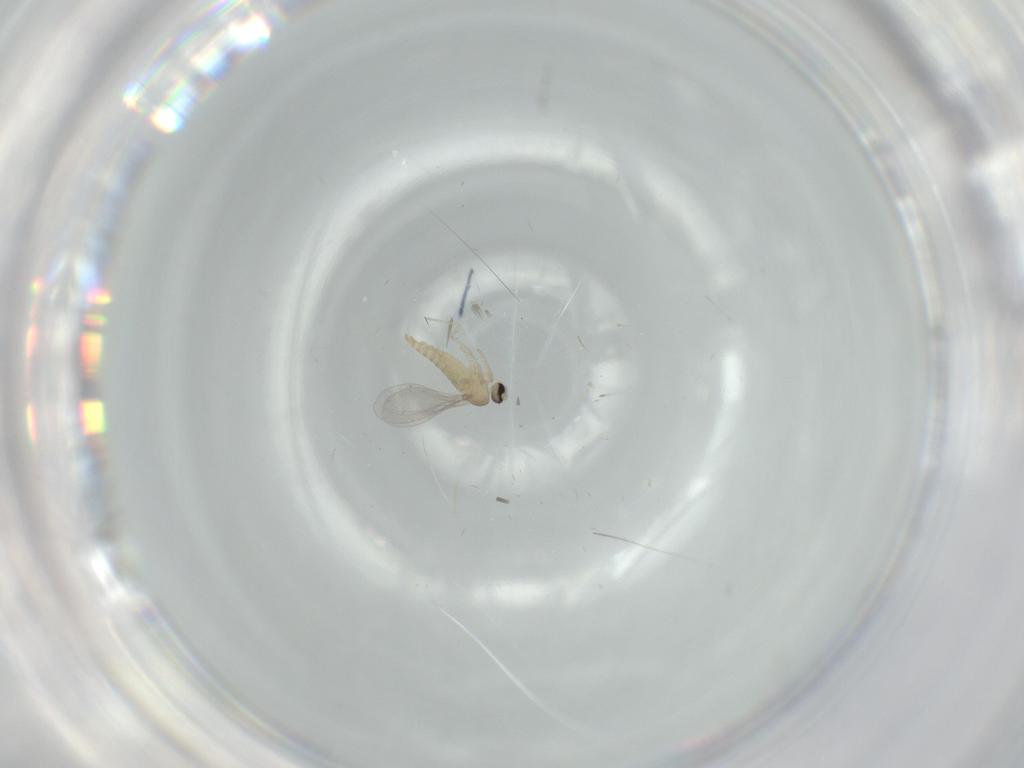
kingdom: Animalia
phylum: Arthropoda
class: Insecta
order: Diptera
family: Cecidomyiidae
